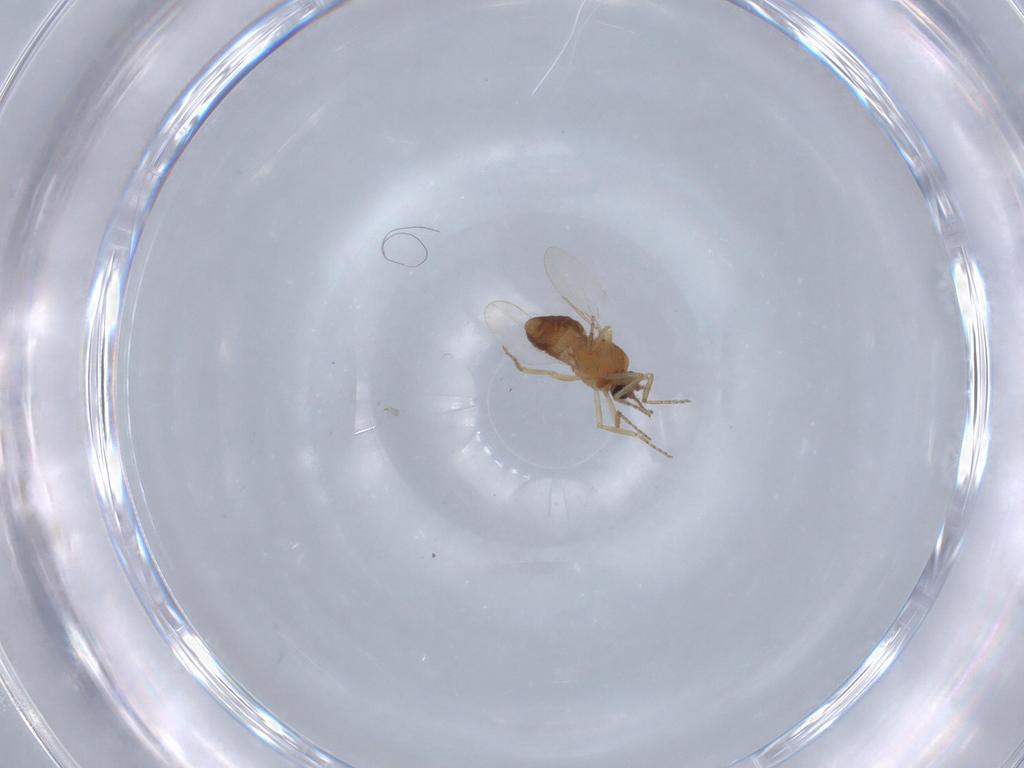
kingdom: Animalia
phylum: Arthropoda
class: Insecta
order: Diptera
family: Ceratopogonidae
